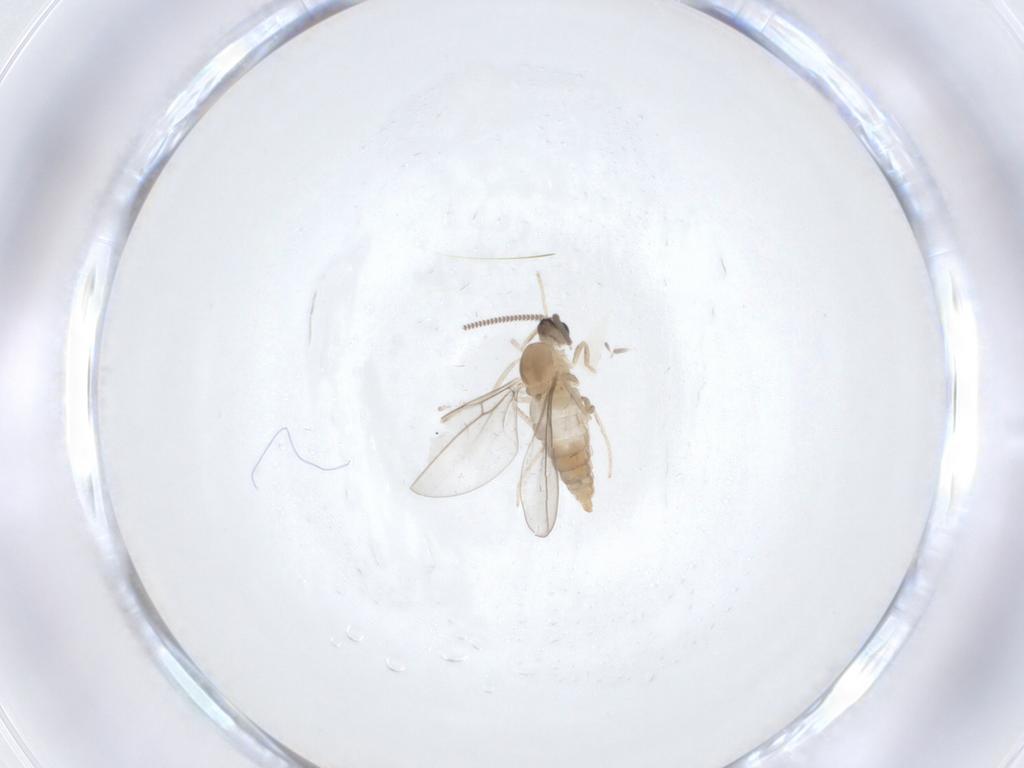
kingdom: Animalia
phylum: Arthropoda
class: Insecta
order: Diptera
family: Cecidomyiidae
